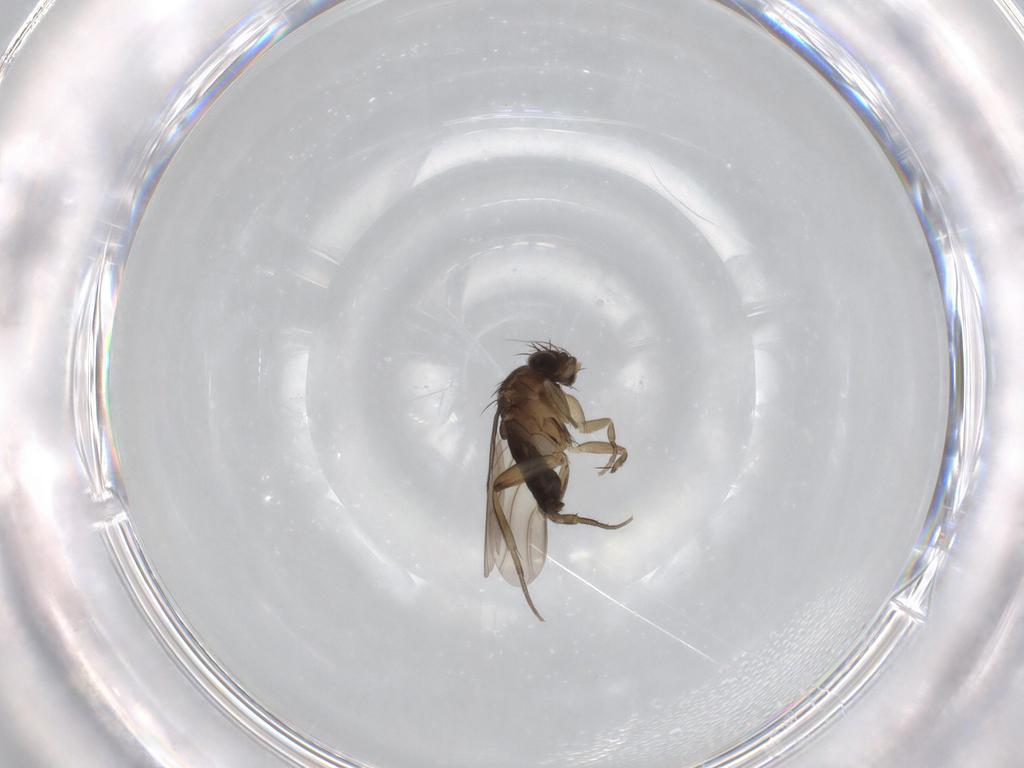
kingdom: Animalia
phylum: Arthropoda
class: Insecta
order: Diptera
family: Phoridae
